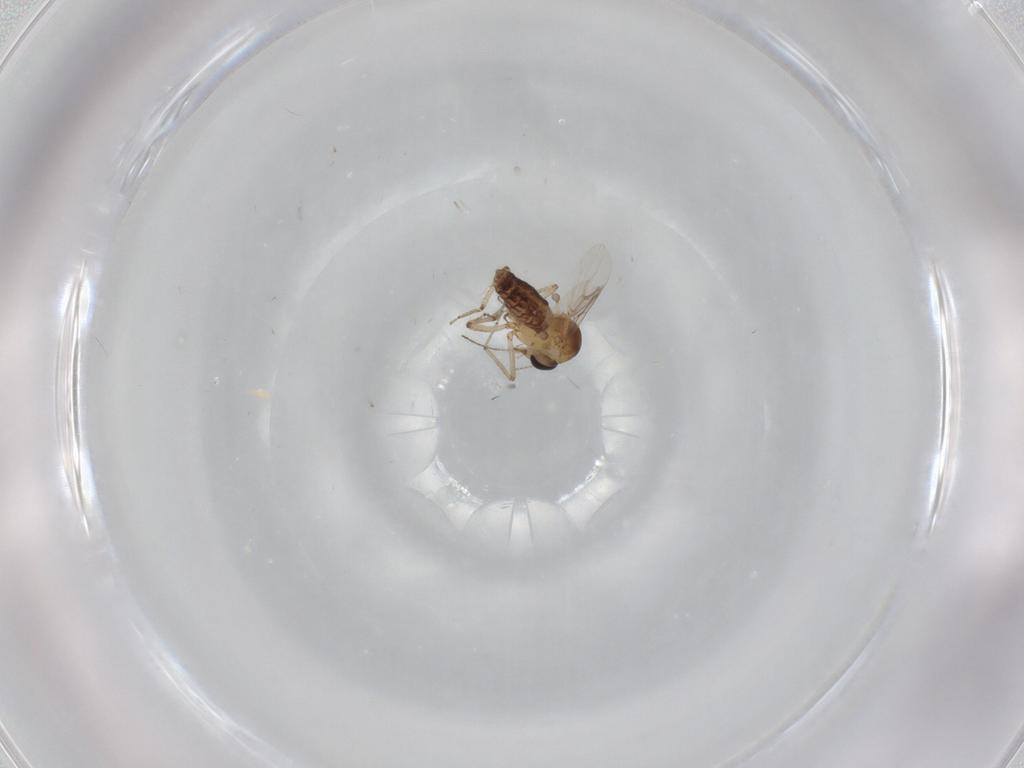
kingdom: Animalia
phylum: Arthropoda
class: Insecta
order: Diptera
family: Ceratopogonidae
